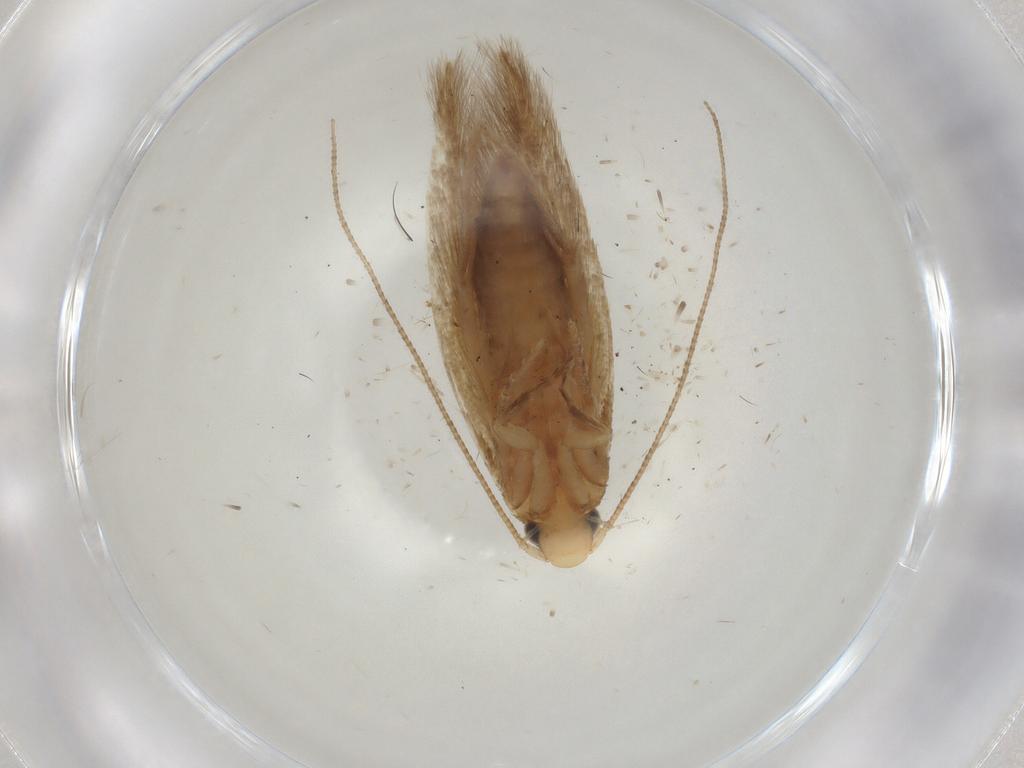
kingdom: Animalia
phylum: Arthropoda
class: Insecta
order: Lepidoptera
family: Tineidae
